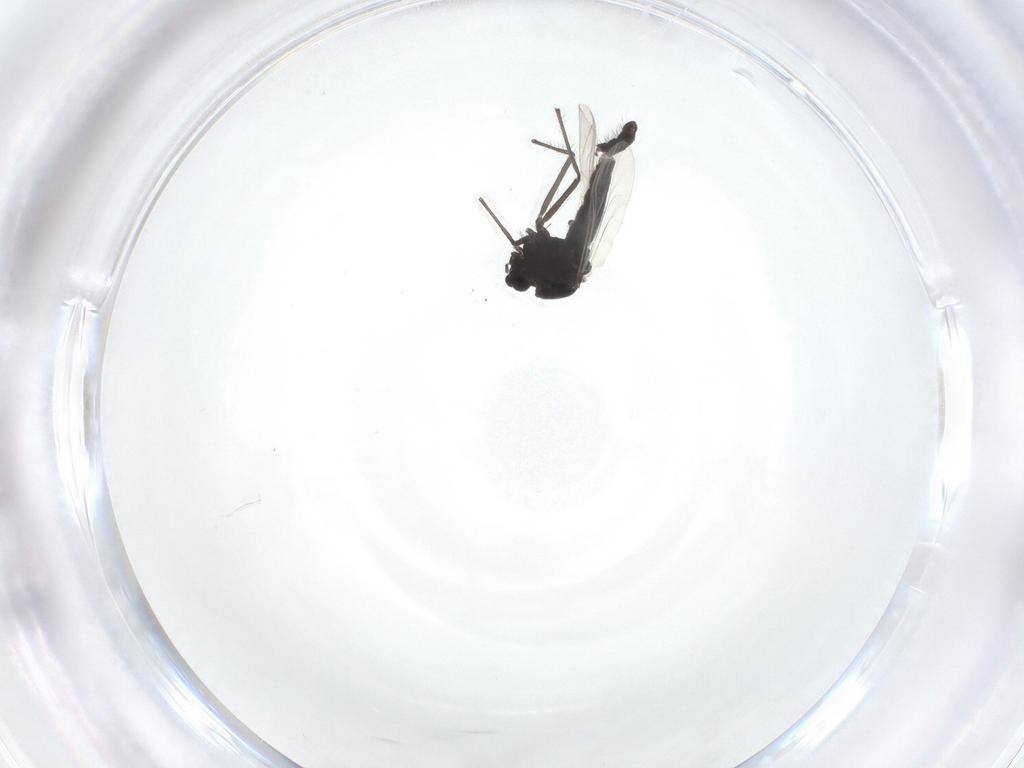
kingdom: Animalia
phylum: Arthropoda
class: Insecta
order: Diptera
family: Chironomidae
